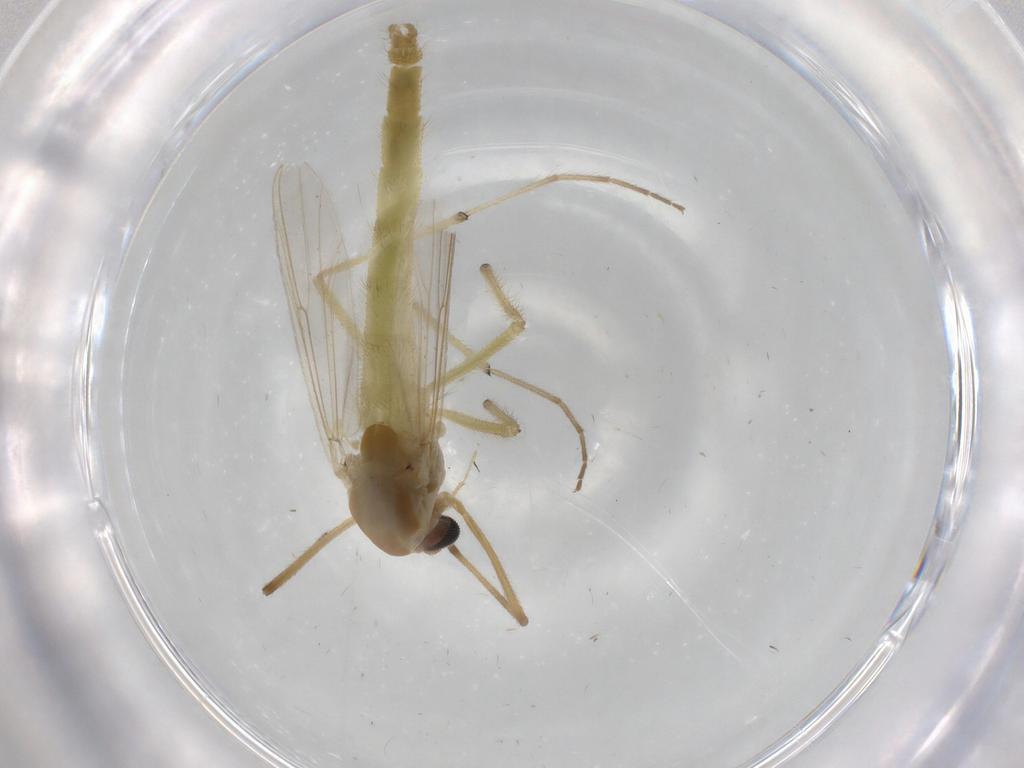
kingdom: Animalia
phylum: Arthropoda
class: Insecta
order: Diptera
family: Chironomidae
